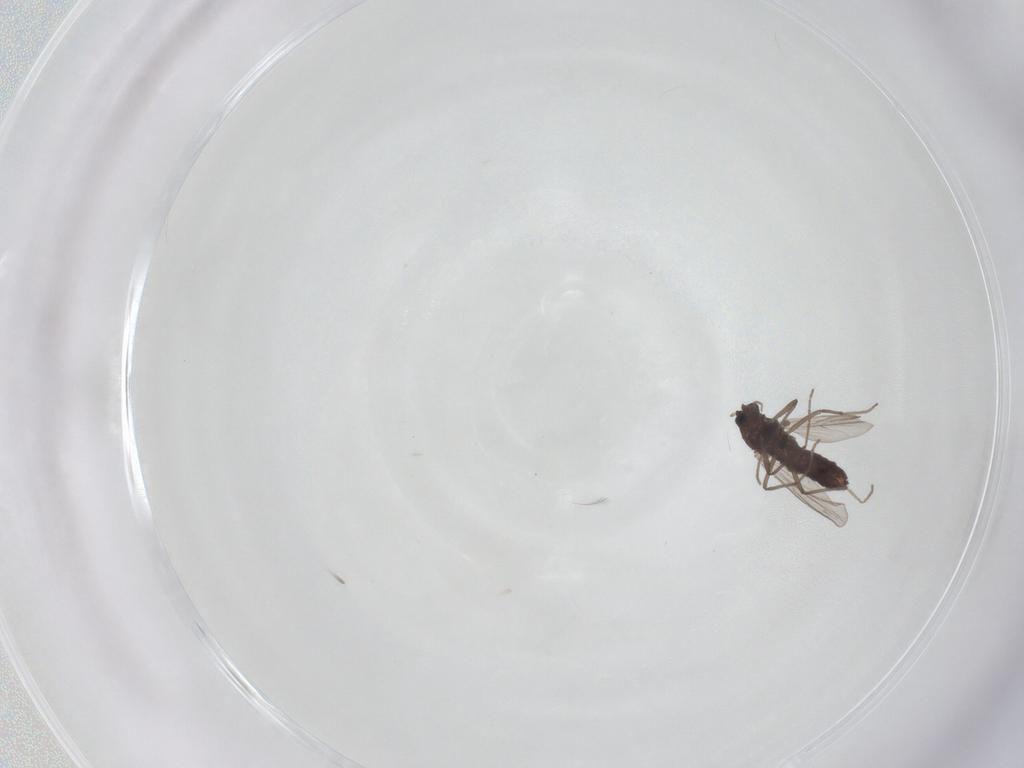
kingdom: Animalia
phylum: Arthropoda
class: Insecta
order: Diptera
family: Chironomidae
